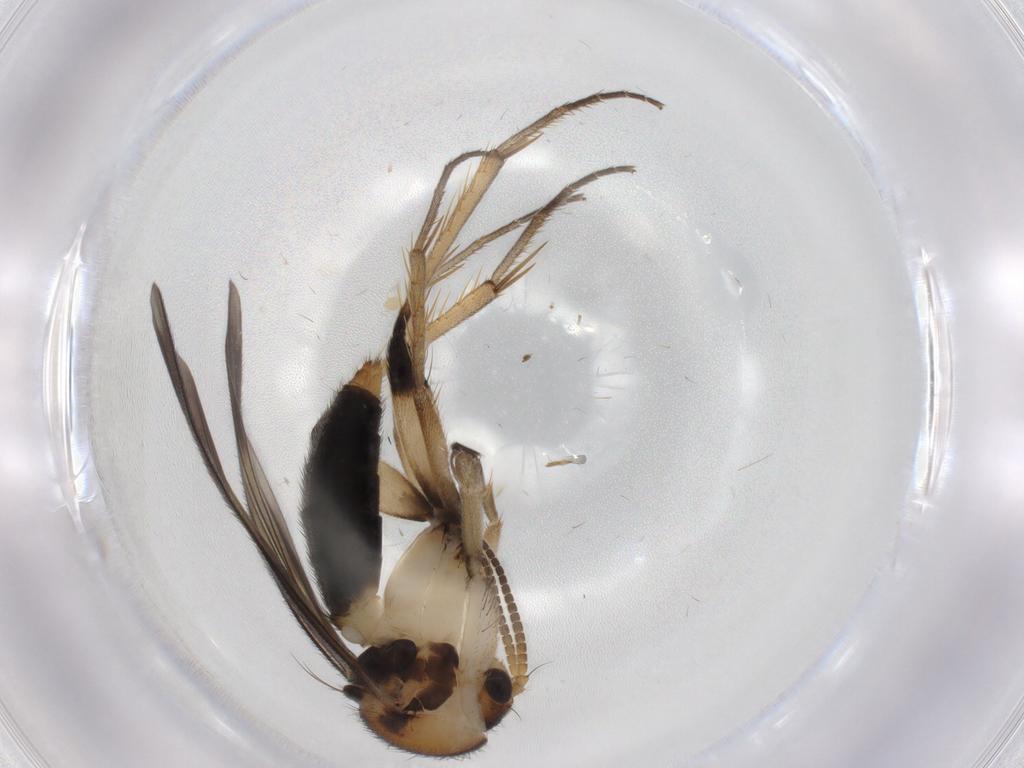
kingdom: Animalia
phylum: Arthropoda
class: Insecta
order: Diptera
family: Mycetophilidae
